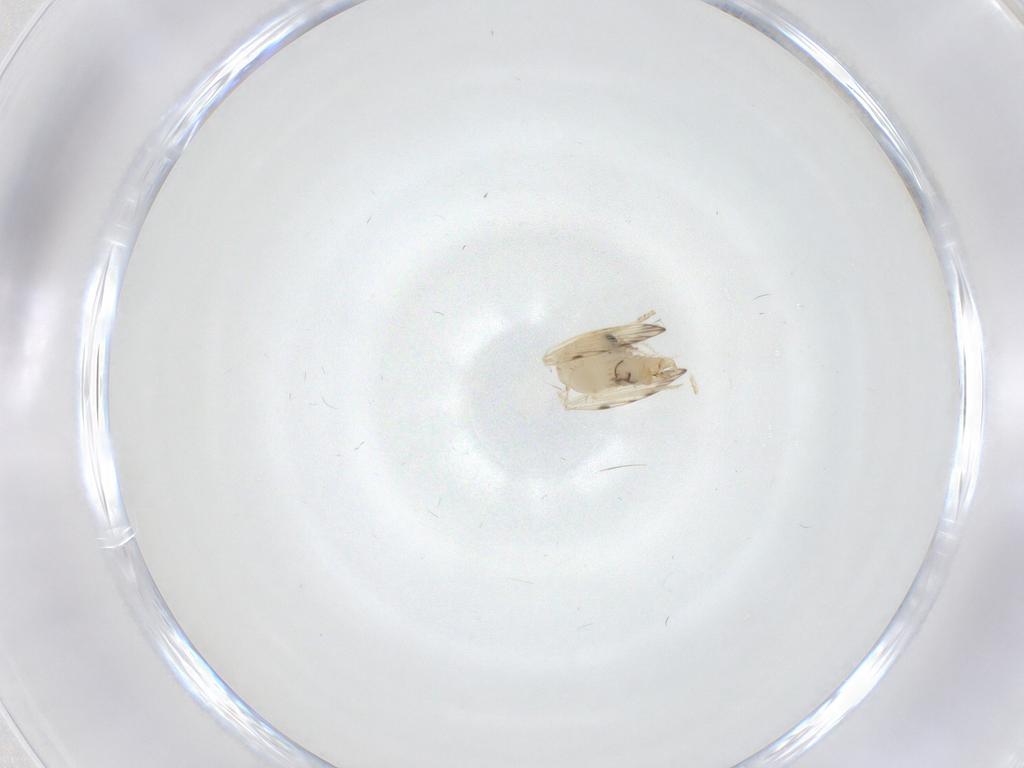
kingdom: Animalia
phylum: Arthropoda
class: Insecta
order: Diptera
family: Psychodidae
